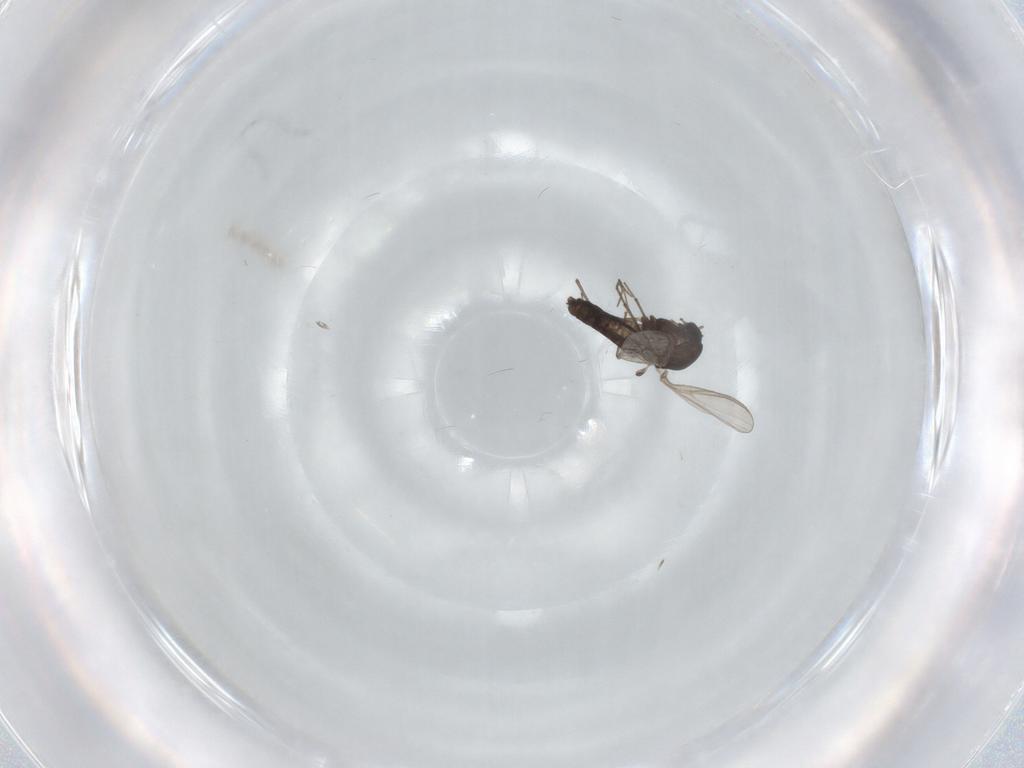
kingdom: Animalia
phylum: Arthropoda
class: Insecta
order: Diptera
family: Chironomidae
